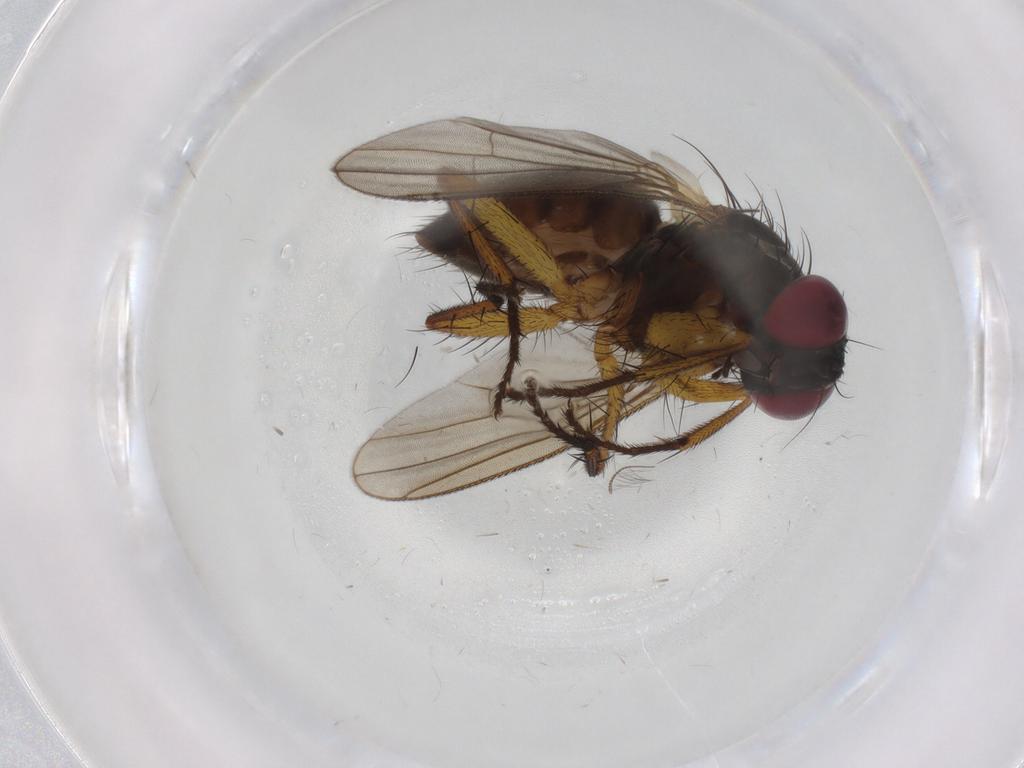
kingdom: Animalia
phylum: Arthropoda
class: Insecta
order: Diptera
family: Muscidae
